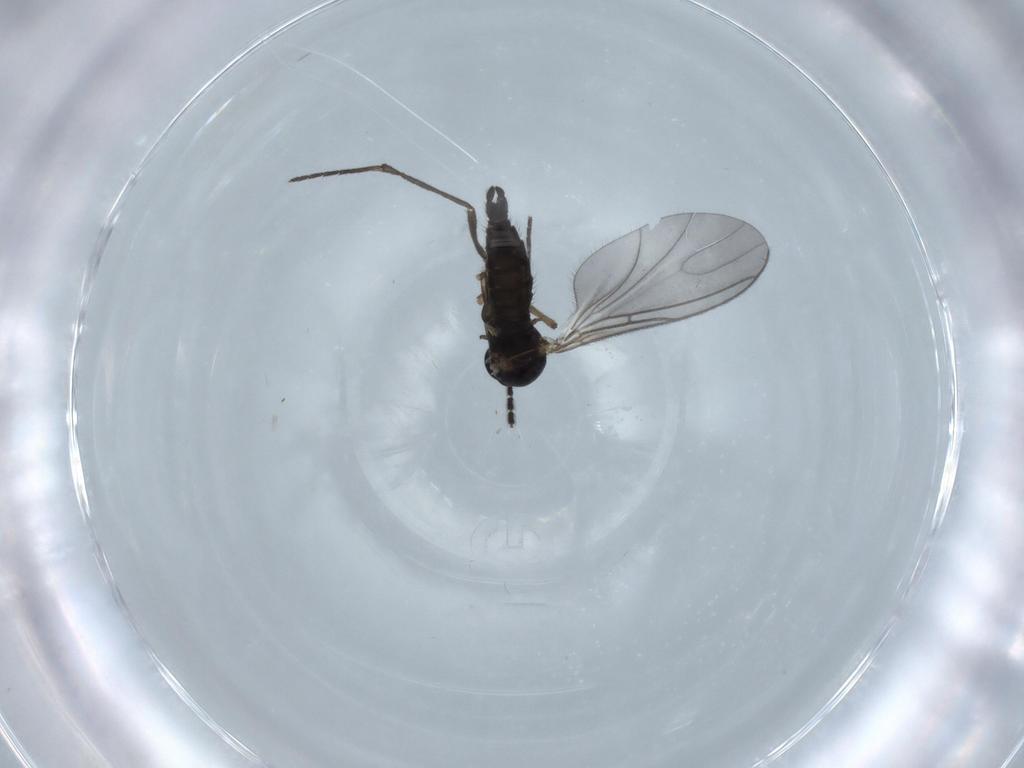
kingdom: Animalia
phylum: Arthropoda
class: Insecta
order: Diptera
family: Sciaridae
